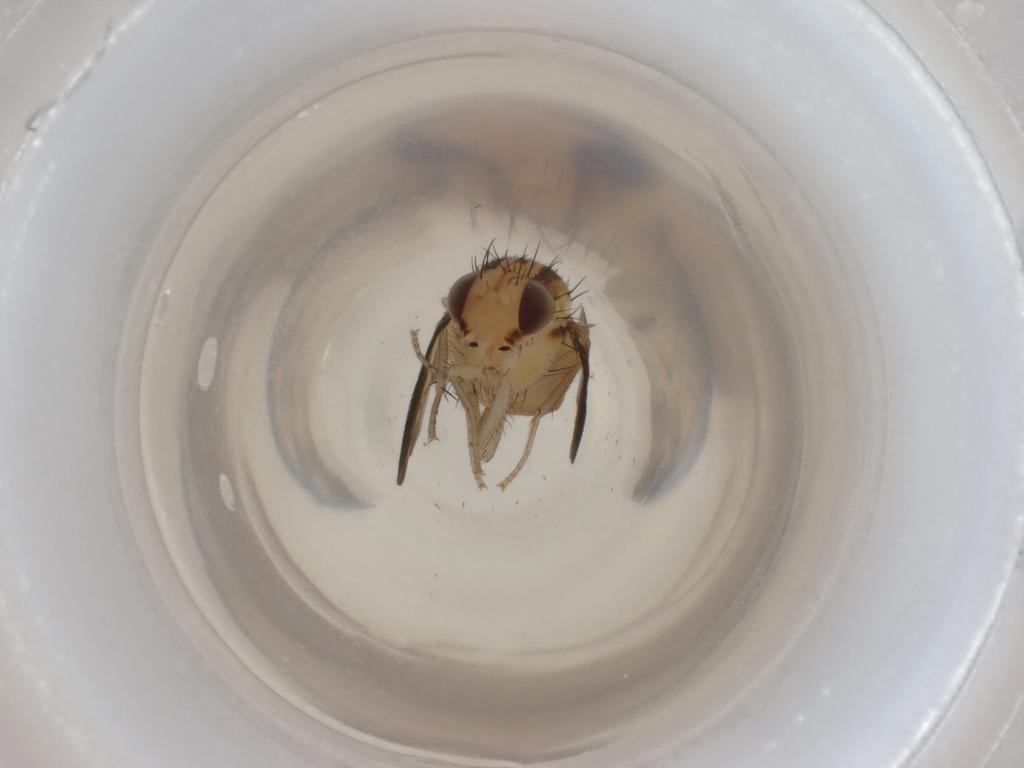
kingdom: Animalia
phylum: Arthropoda
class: Insecta
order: Diptera
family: Lauxaniidae
